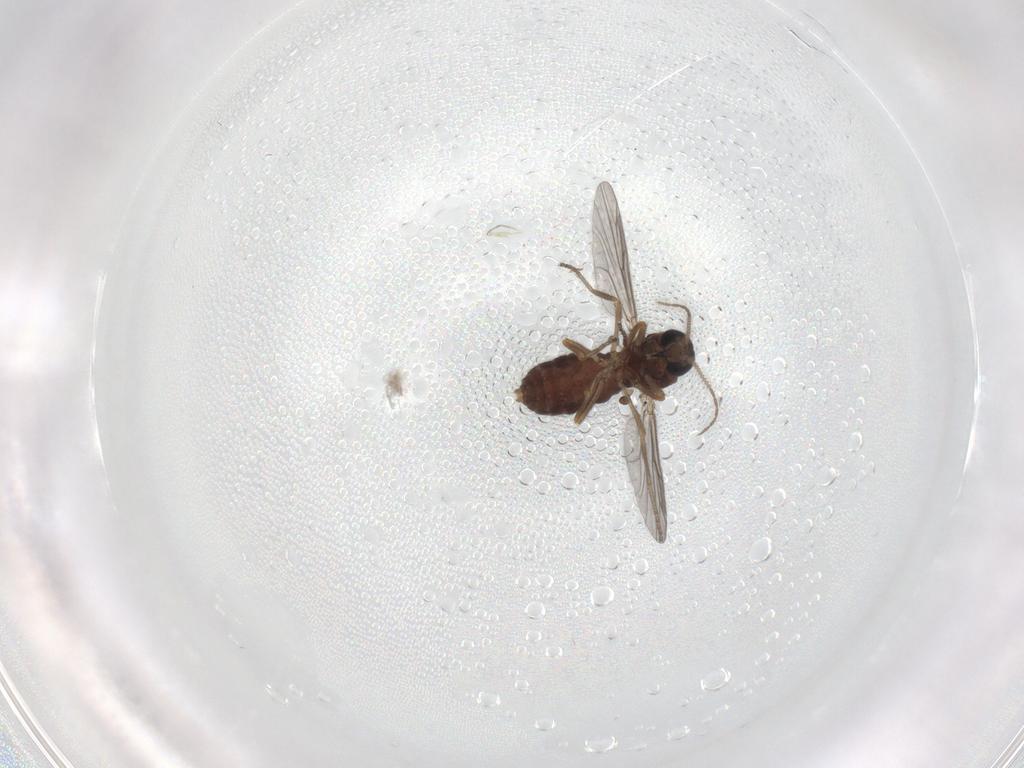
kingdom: Animalia
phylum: Arthropoda
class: Insecta
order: Diptera
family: Ceratopogonidae
